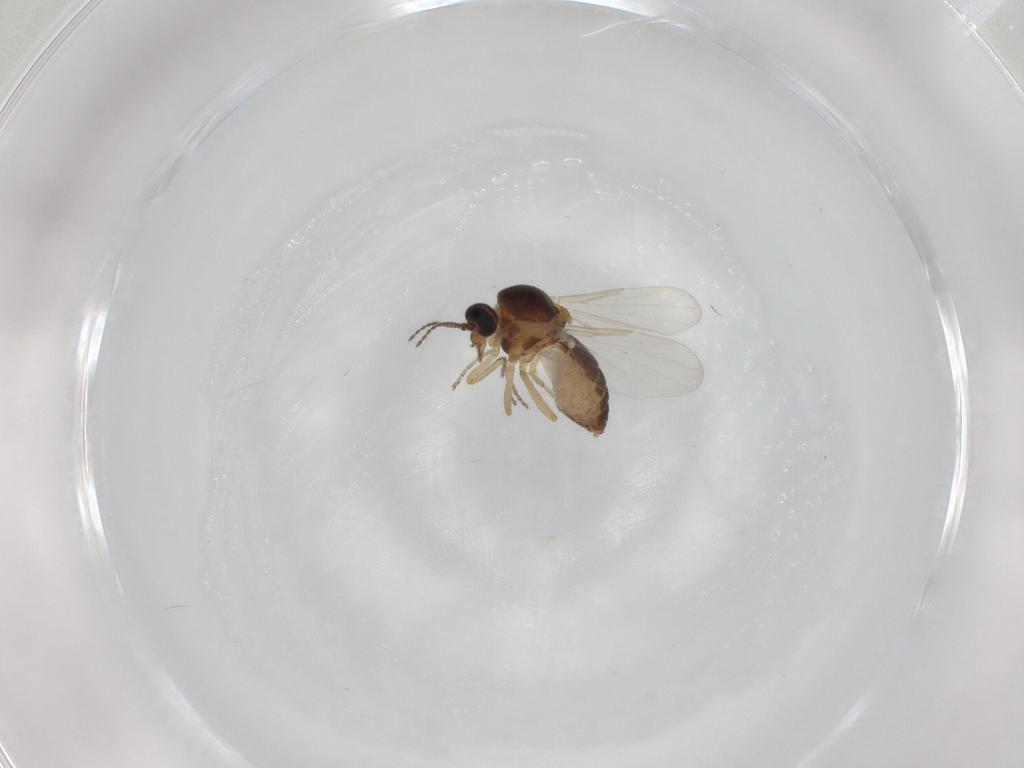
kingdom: Animalia
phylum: Arthropoda
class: Insecta
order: Diptera
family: Ceratopogonidae
